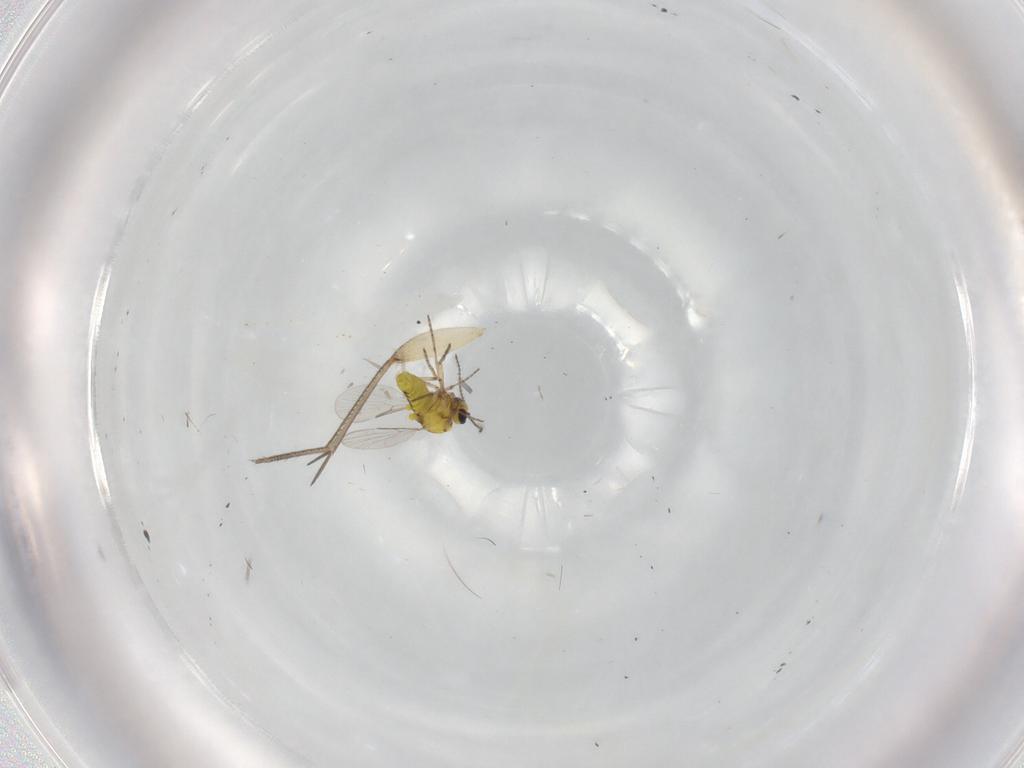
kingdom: Animalia
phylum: Arthropoda
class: Insecta
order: Diptera
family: Ceratopogonidae
